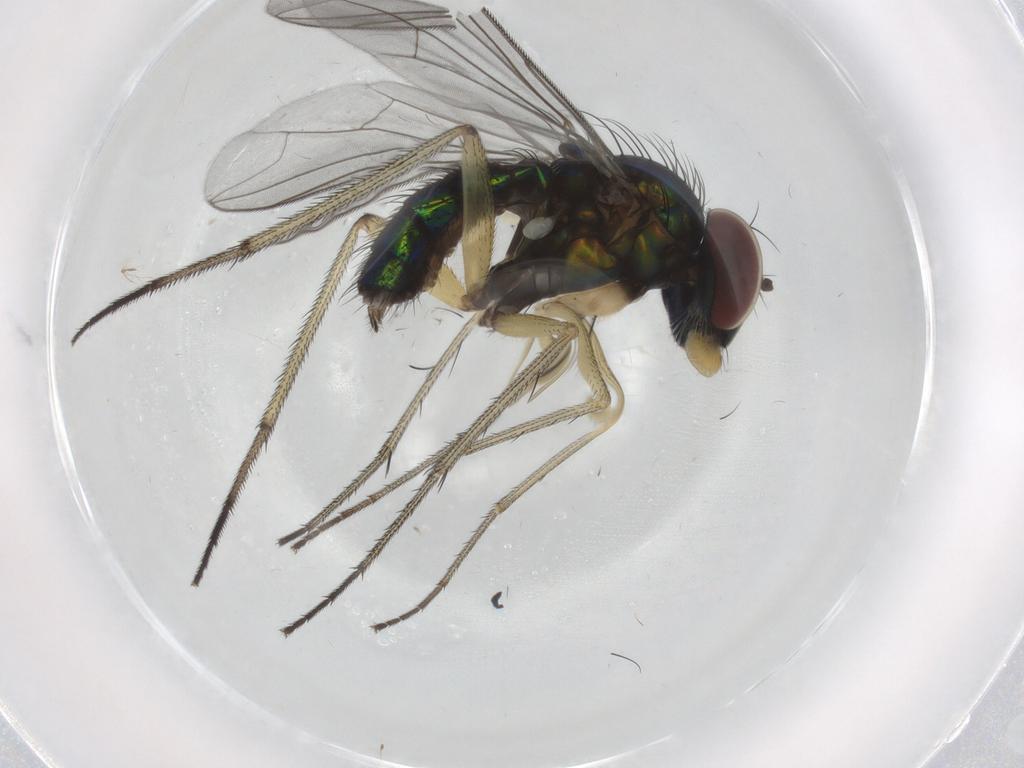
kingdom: Animalia
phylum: Arthropoda
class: Insecta
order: Diptera
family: Dolichopodidae
